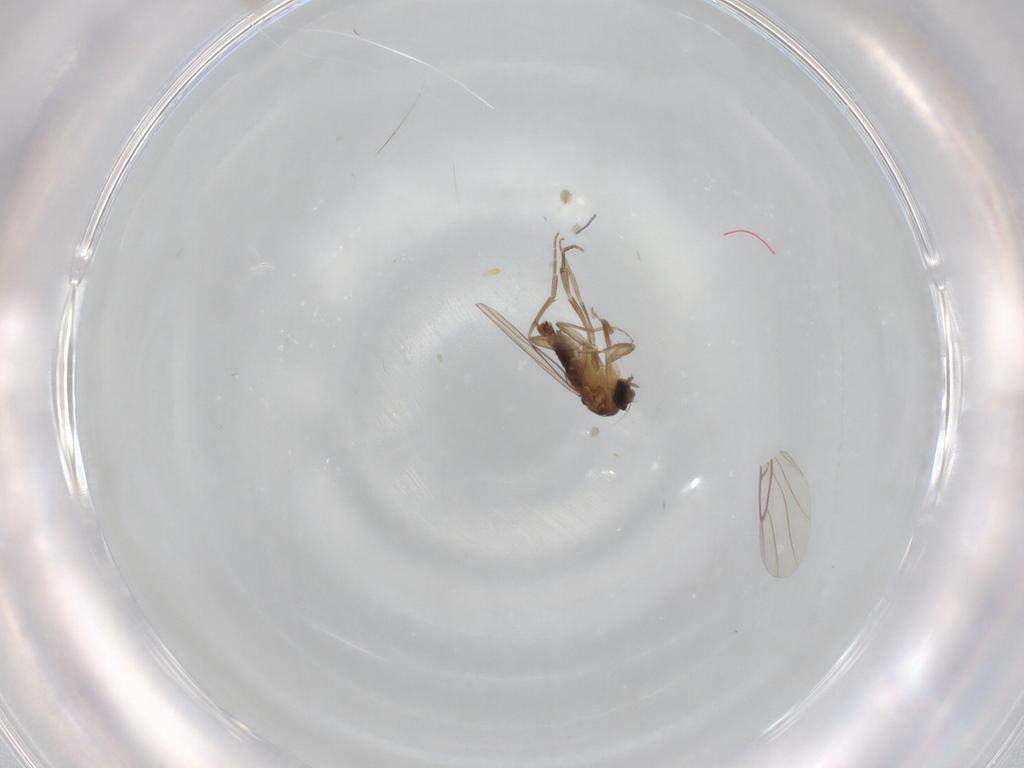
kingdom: Animalia
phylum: Arthropoda
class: Insecta
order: Diptera
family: Phoridae
